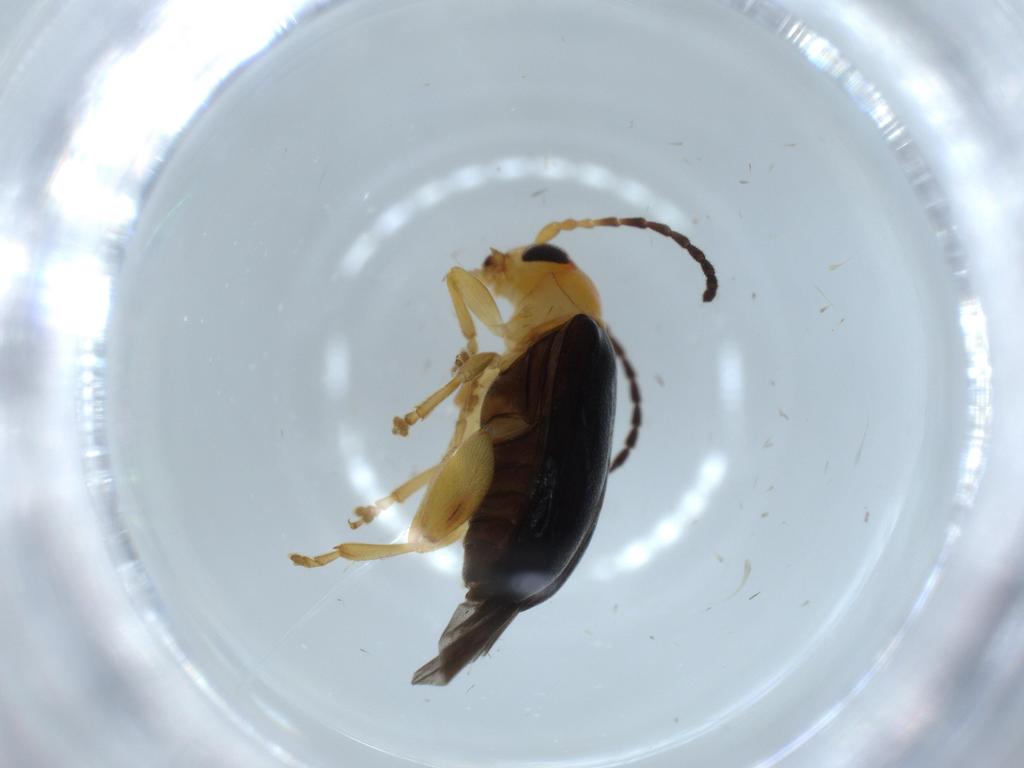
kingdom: Animalia
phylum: Arthropoda
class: Insecta
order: Coleoptera
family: Chrysomelidae
